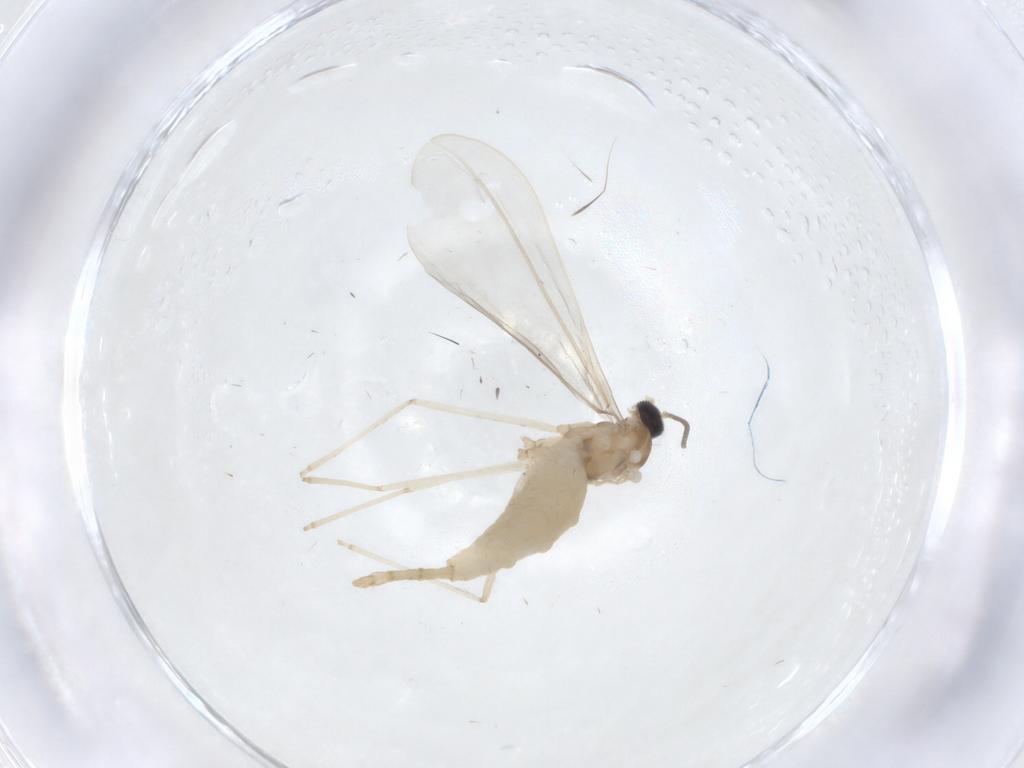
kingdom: Animalia
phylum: Arthropoda
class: Insecta
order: Diptera
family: Cecidomyiidae
